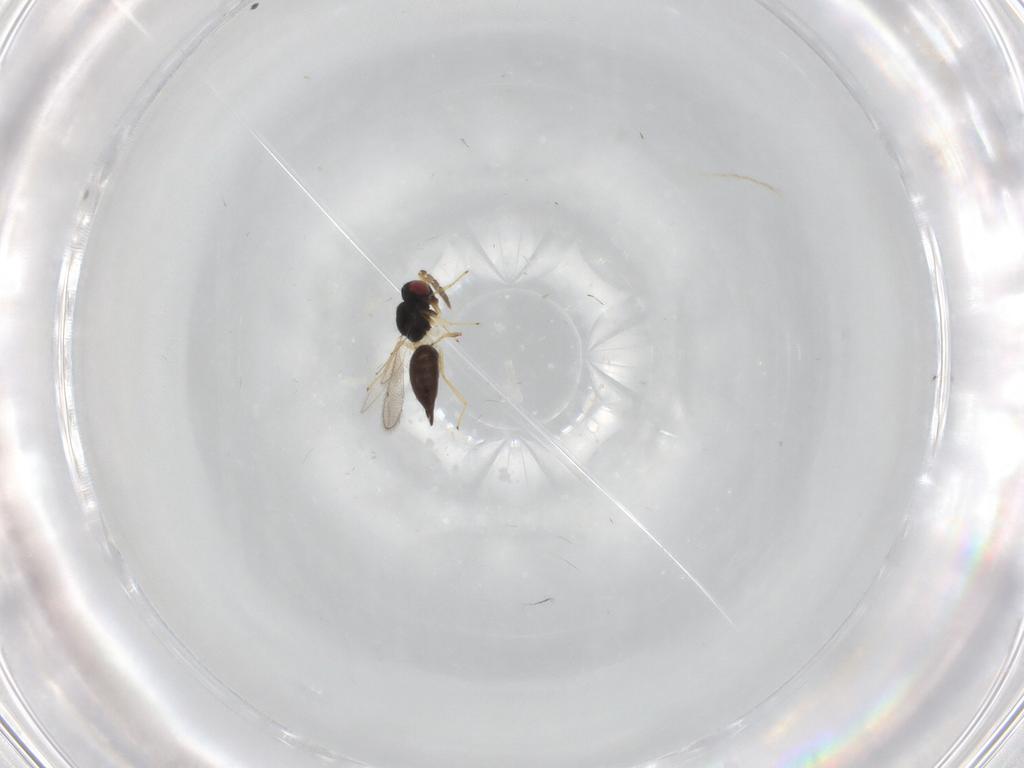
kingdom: Animalia
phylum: Arthropoda
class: Insecta
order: Hymenoptera
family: Eulophidae
